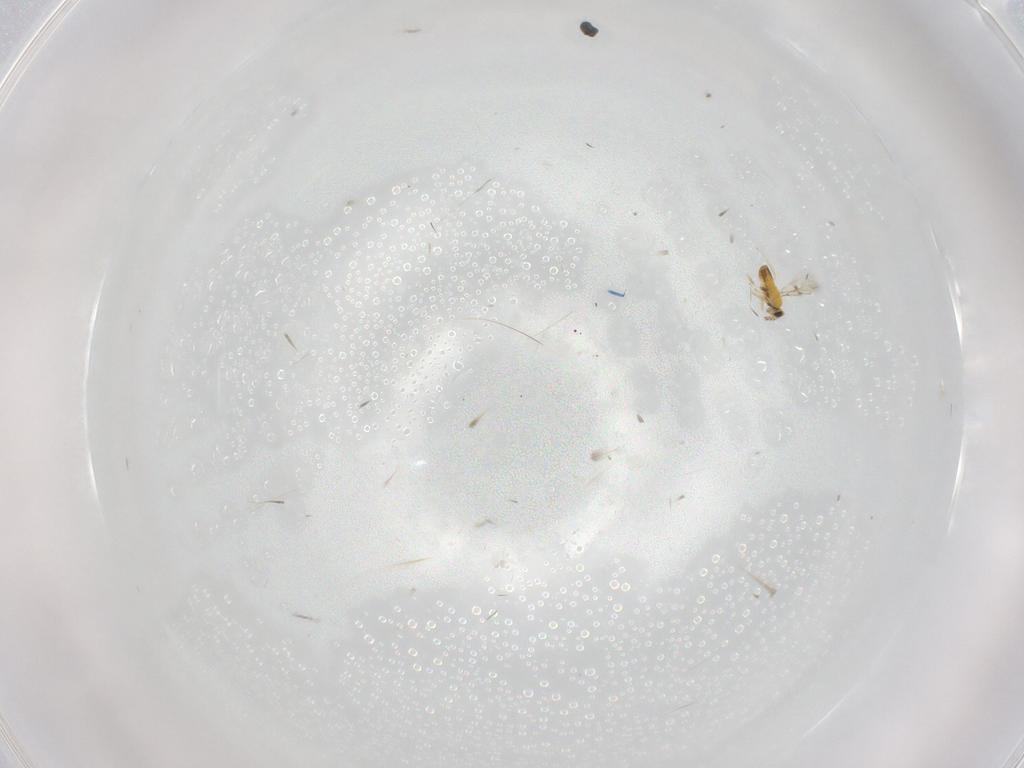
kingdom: Animalia
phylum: Arthropoda
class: Insecta
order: Hymenoptera
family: Trichogrammatidae
